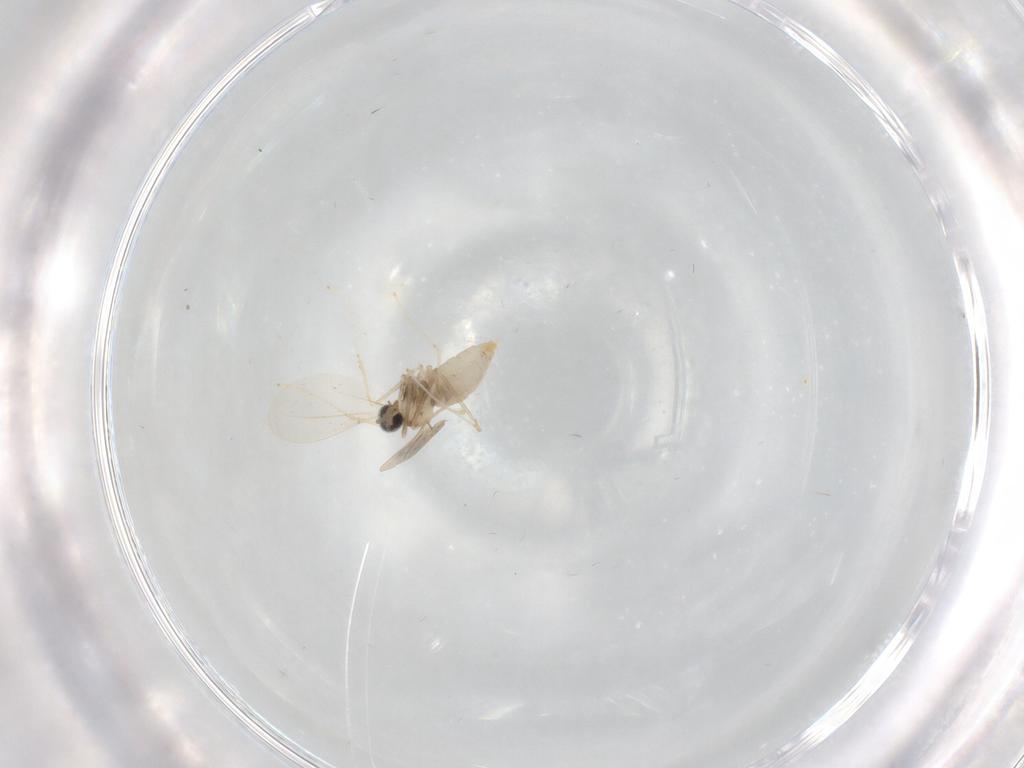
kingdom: Animalia
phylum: Arthropoda
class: Insecta
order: Diptera
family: Cecidomyiidae
